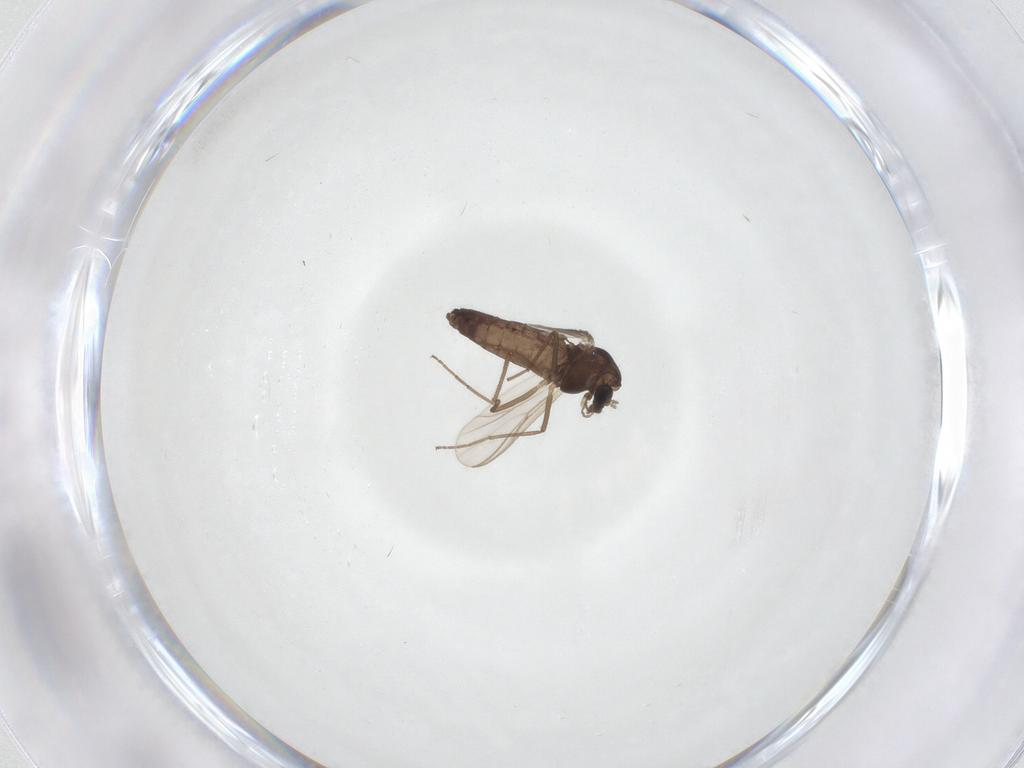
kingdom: Animalia
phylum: Arthropoda
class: Insecta
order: Diptera
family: Chironomidae
